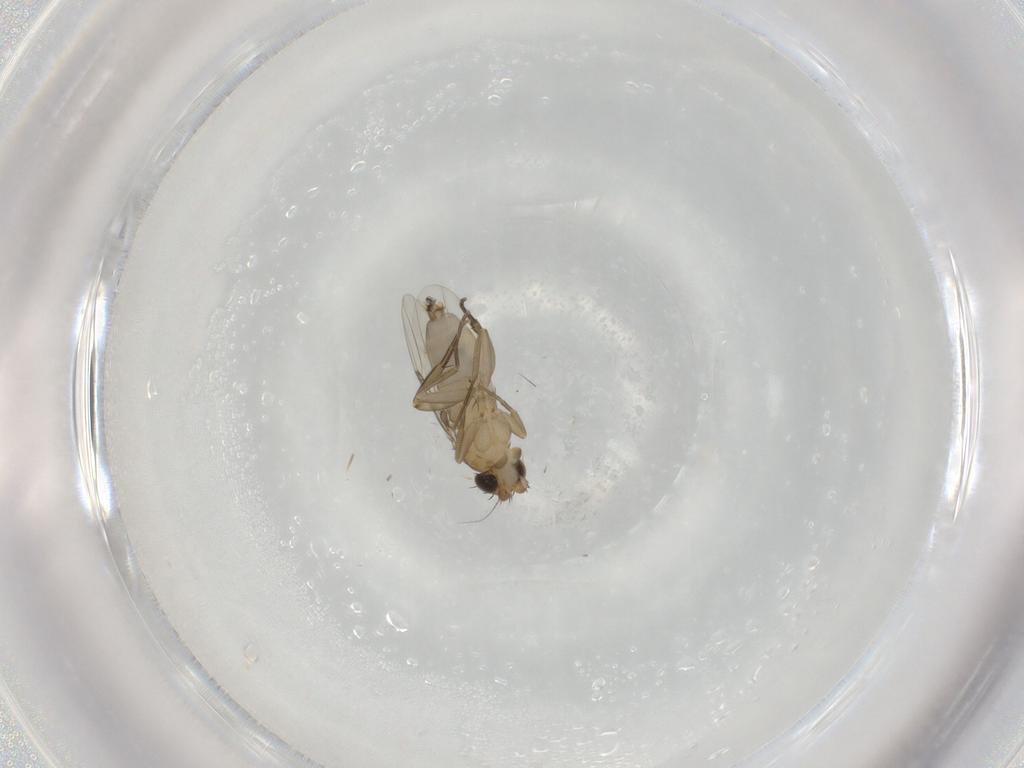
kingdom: Animalia
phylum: Arthropoda
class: Insecta
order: Diptera
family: Phoridae
